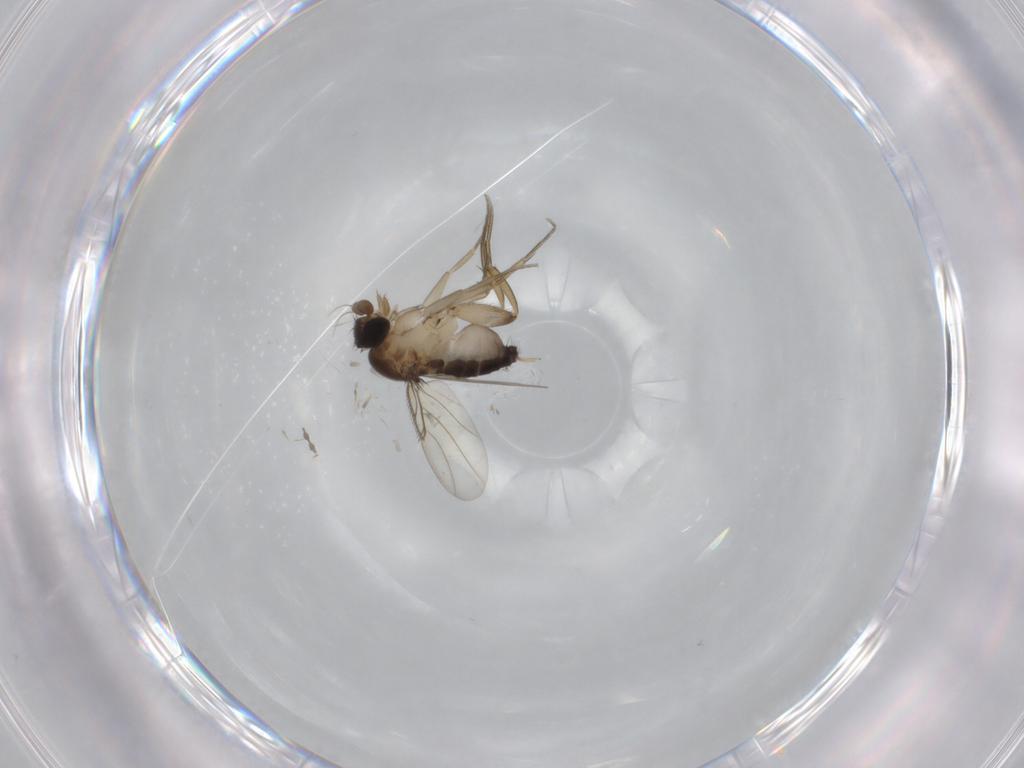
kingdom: Animalia
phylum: Arthropoda
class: Insecta
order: Diptera
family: Phoridae
